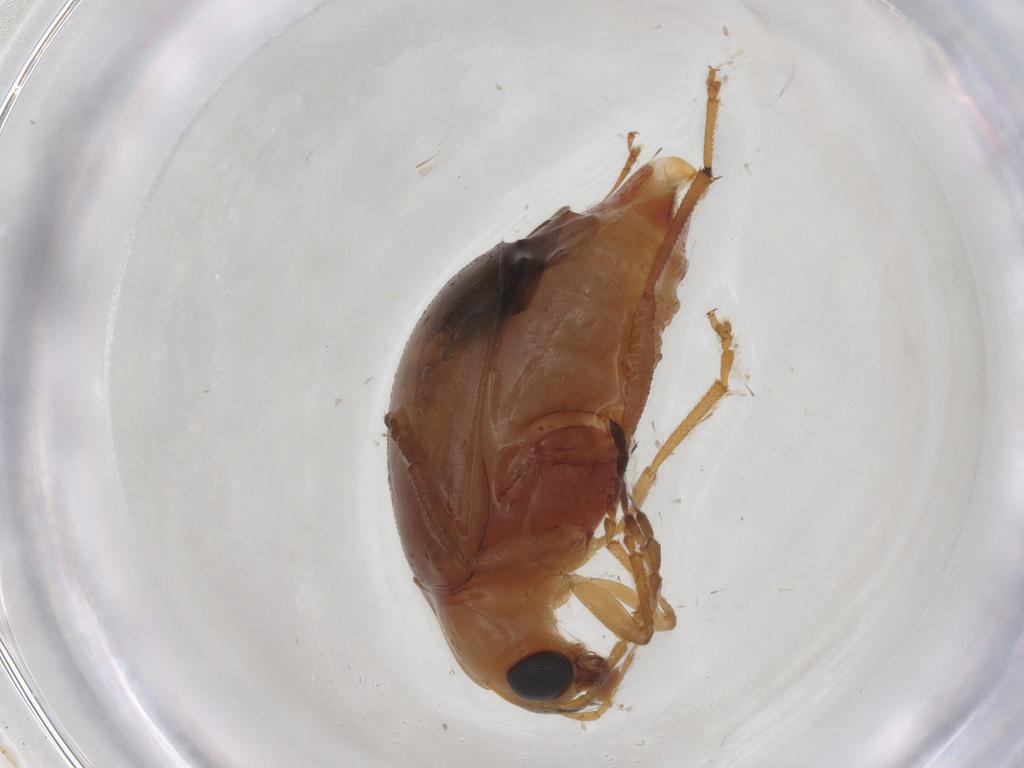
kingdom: Animalia
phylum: Arthropoda
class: Insecta
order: Coleoptera
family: Chrysomelidae
